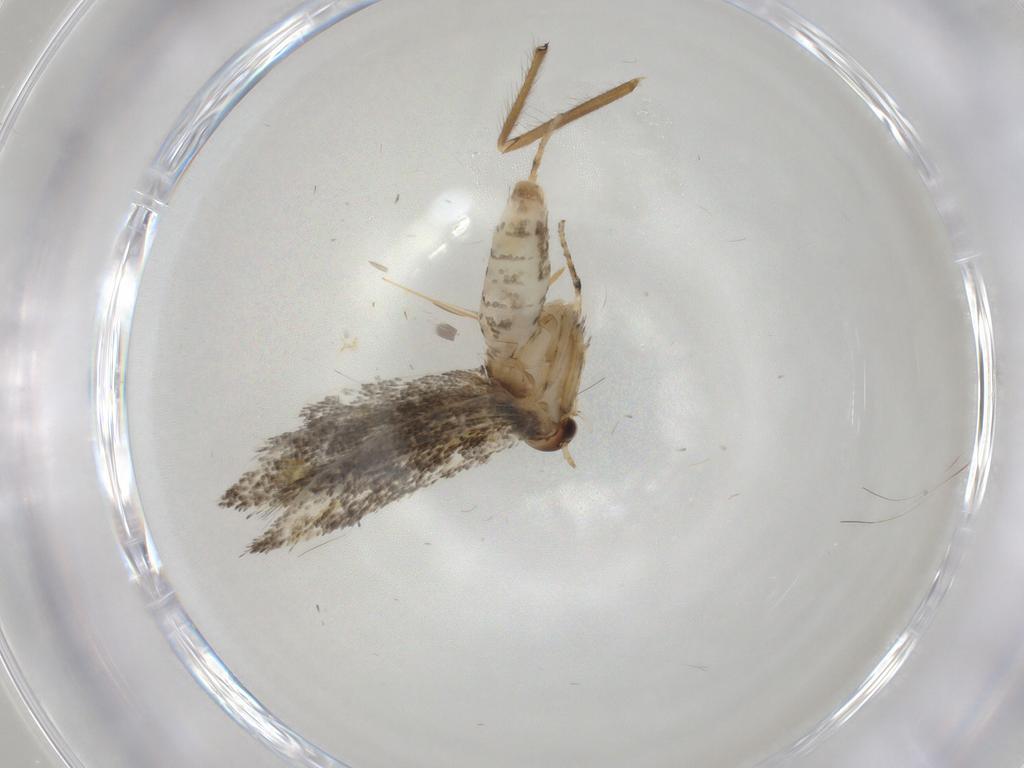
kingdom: Animalia
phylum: Arthropoda
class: Insecta
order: Lepidoptera
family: Gelechiidae
